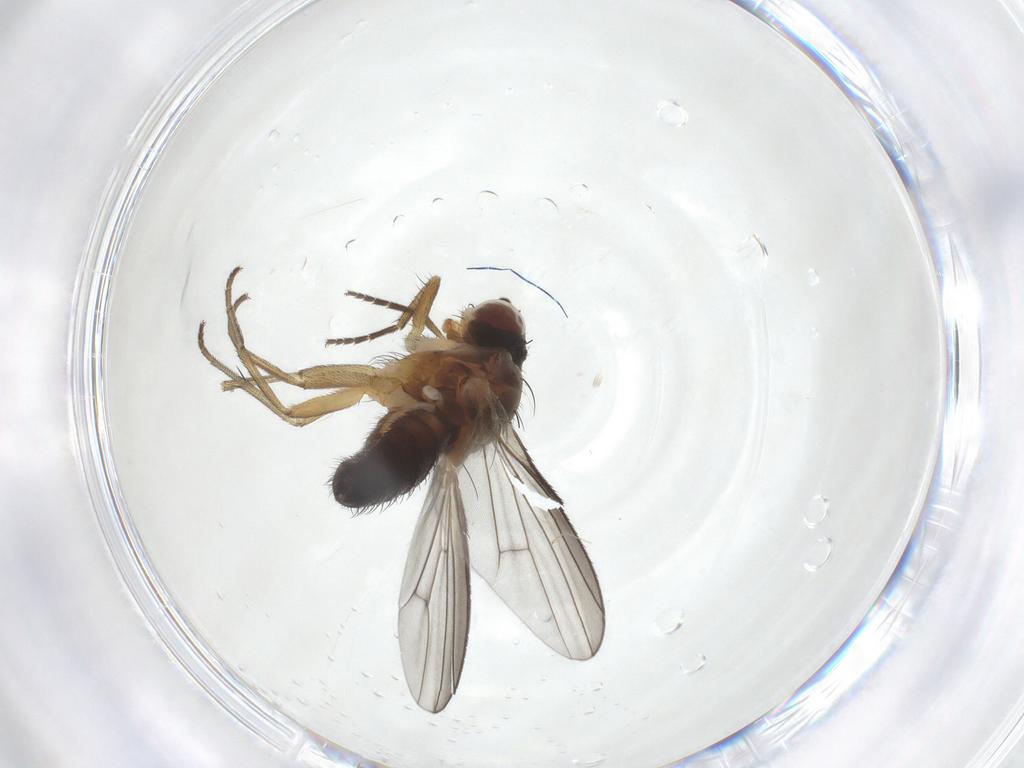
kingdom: Animalia
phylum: Arthropoda
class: Insecta
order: Diptera
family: Heleomyzidae
